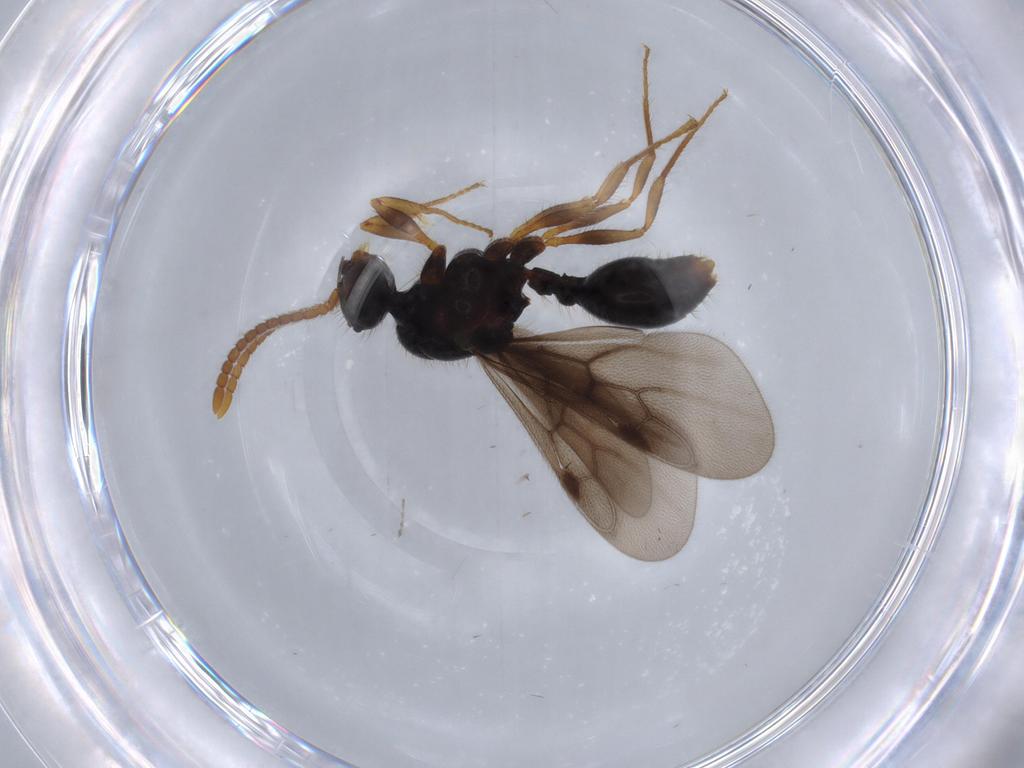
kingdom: Animalia
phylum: Arthropoda
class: Insecta
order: Hymenoptera
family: Formicidae
